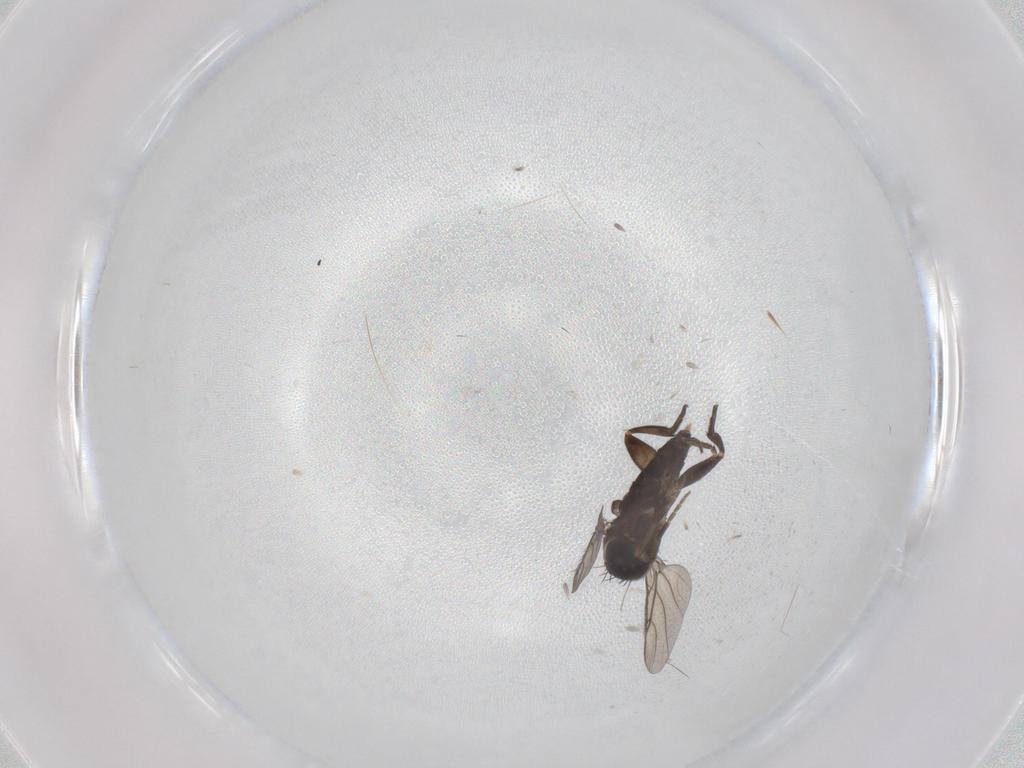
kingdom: Animalia
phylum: Arthropoda
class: Insecta
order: Diptera
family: Phoridae
